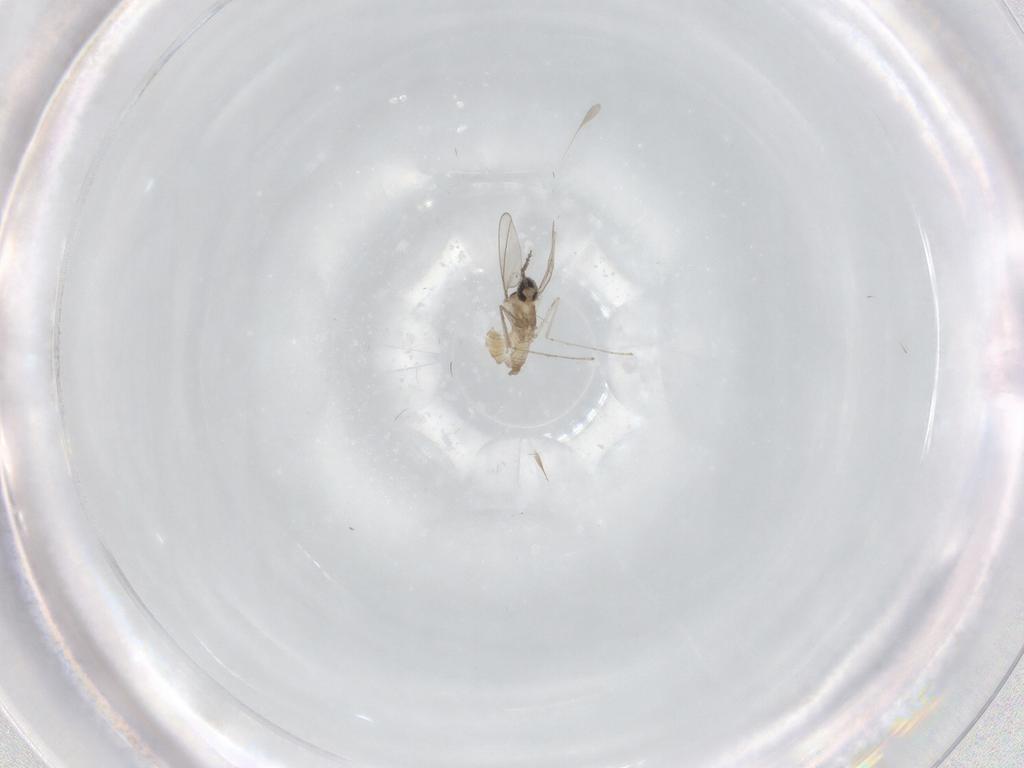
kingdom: Animalia
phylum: Arthropoda
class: Insecta
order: Diptera
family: Cecidomyiidae
